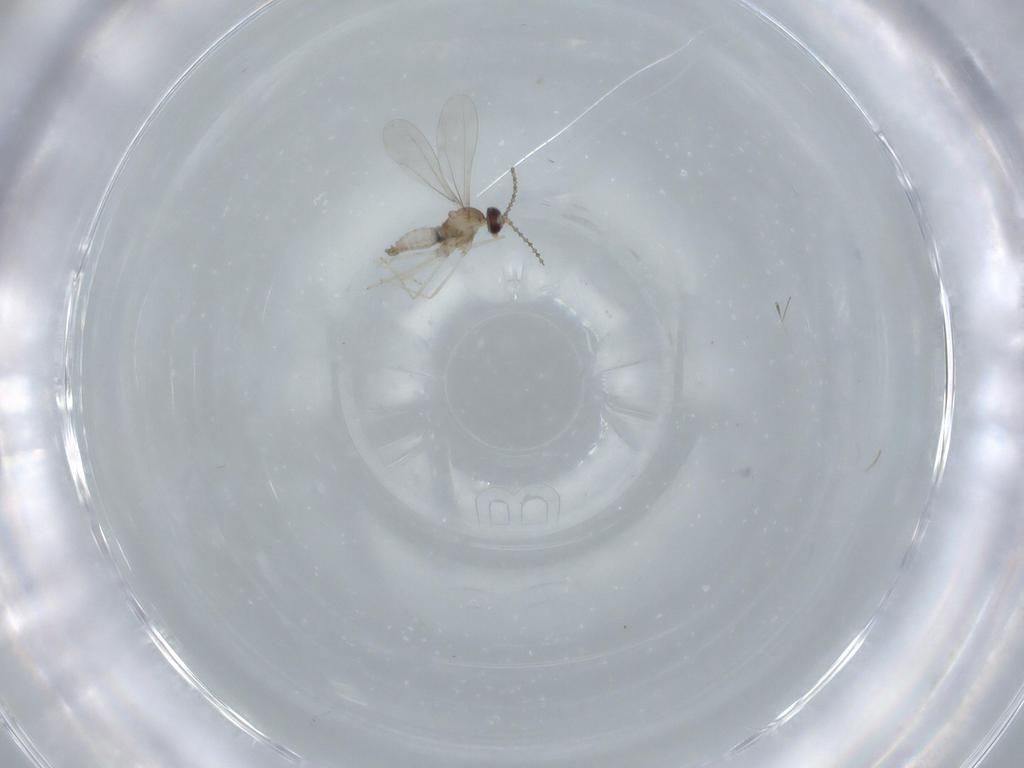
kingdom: Animalia
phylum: Arthropoda
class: Insecta
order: Diptera
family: Cecidomyiidae
